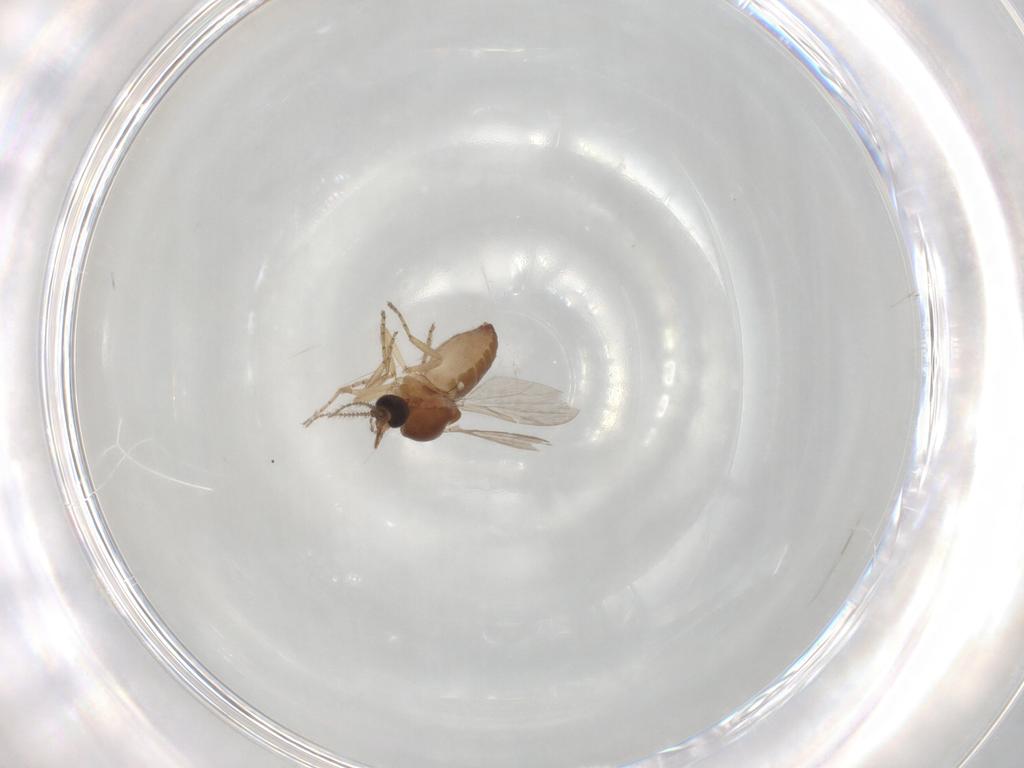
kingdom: Animalia
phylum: Arthropoda
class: Insecta
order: Diptera
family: Ceratopogonidae
